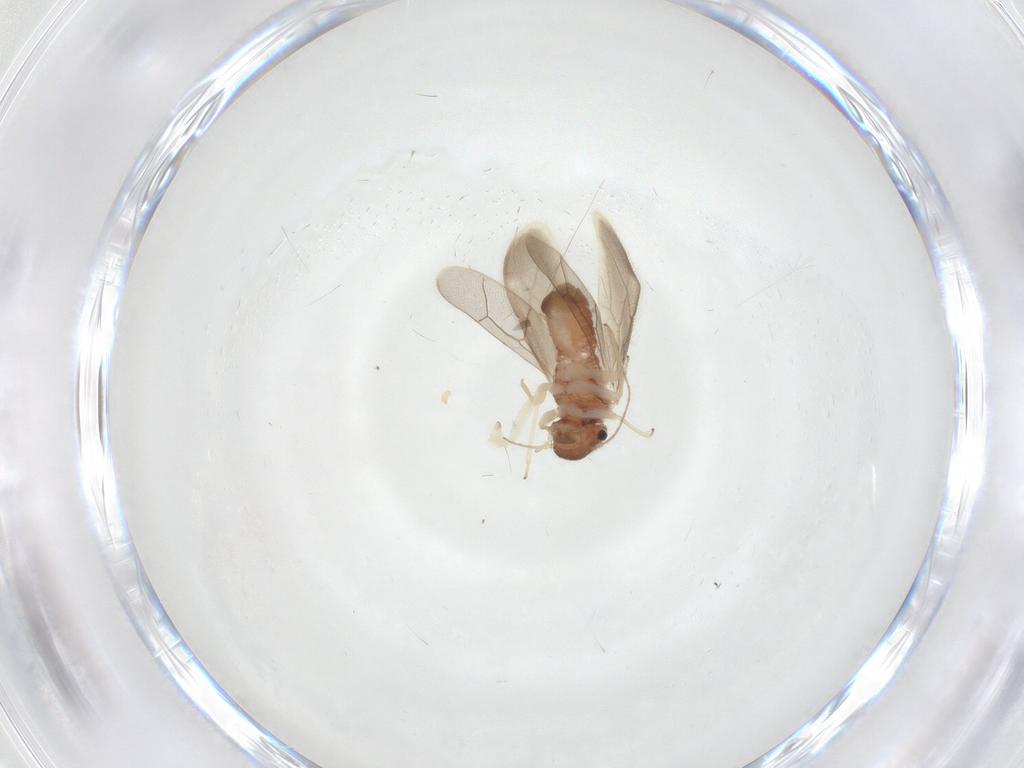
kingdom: Animalia
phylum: Arthropoda
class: Insecta
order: Psocodea
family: Archipsocidae
